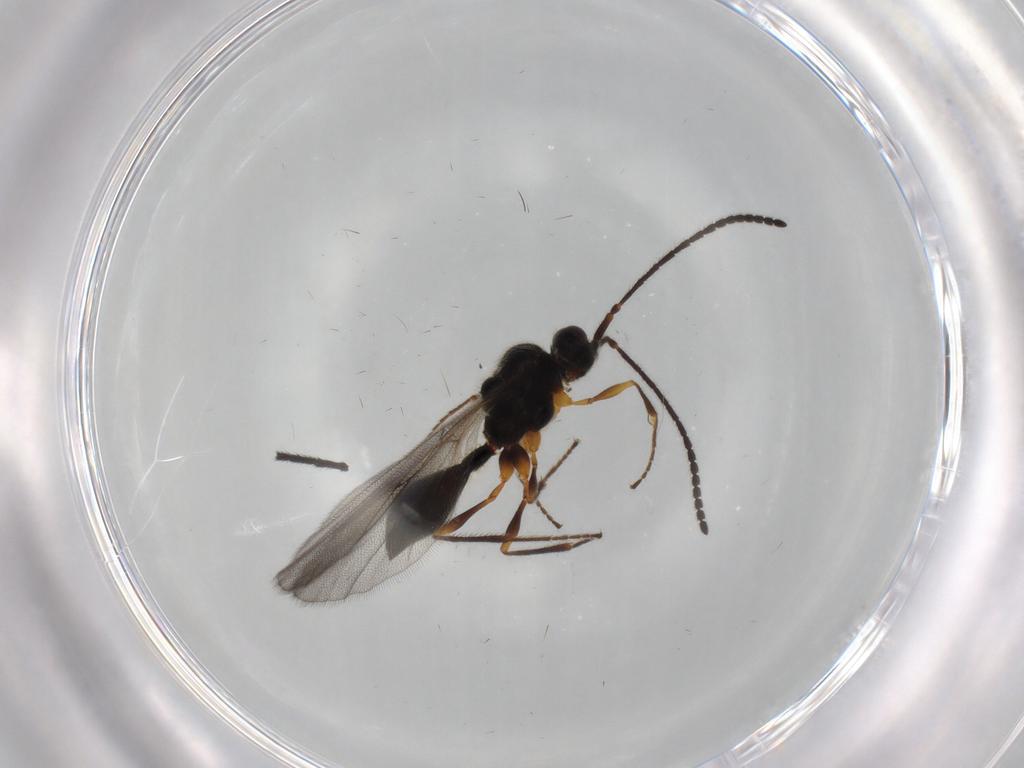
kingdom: Animalia
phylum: Arthropoda
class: Insecta
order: Hymenoptera
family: Diapriidae
